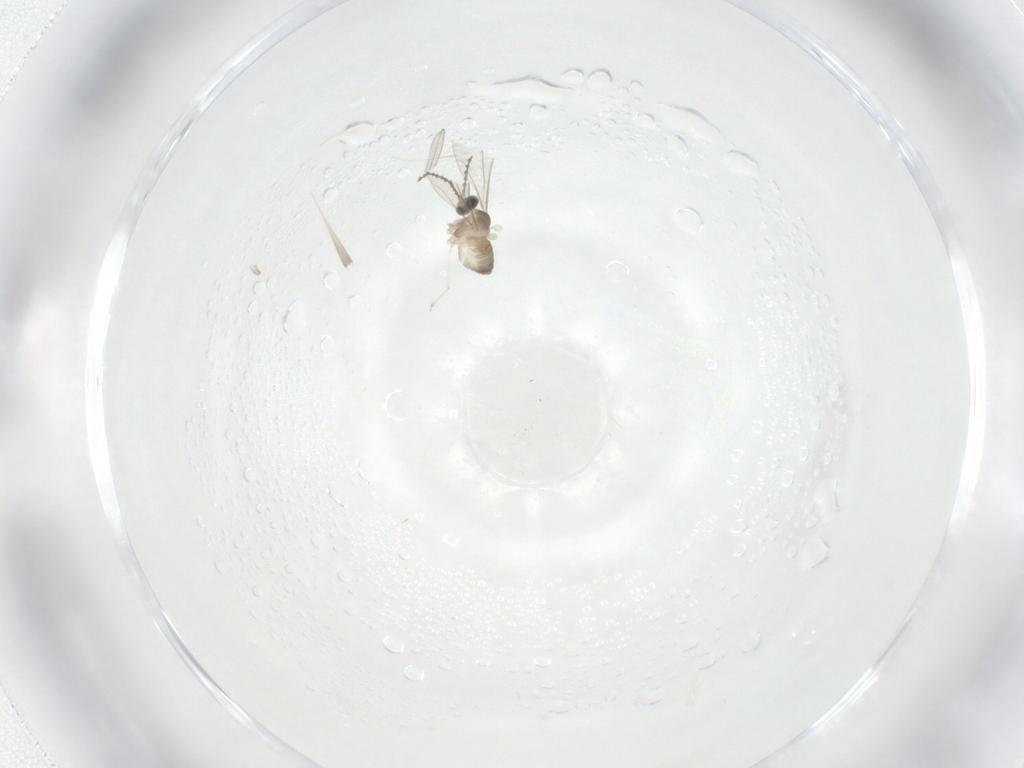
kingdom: Animalia
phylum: Arthropoda
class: Insecta
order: Diptera
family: Cecidomyiidae
